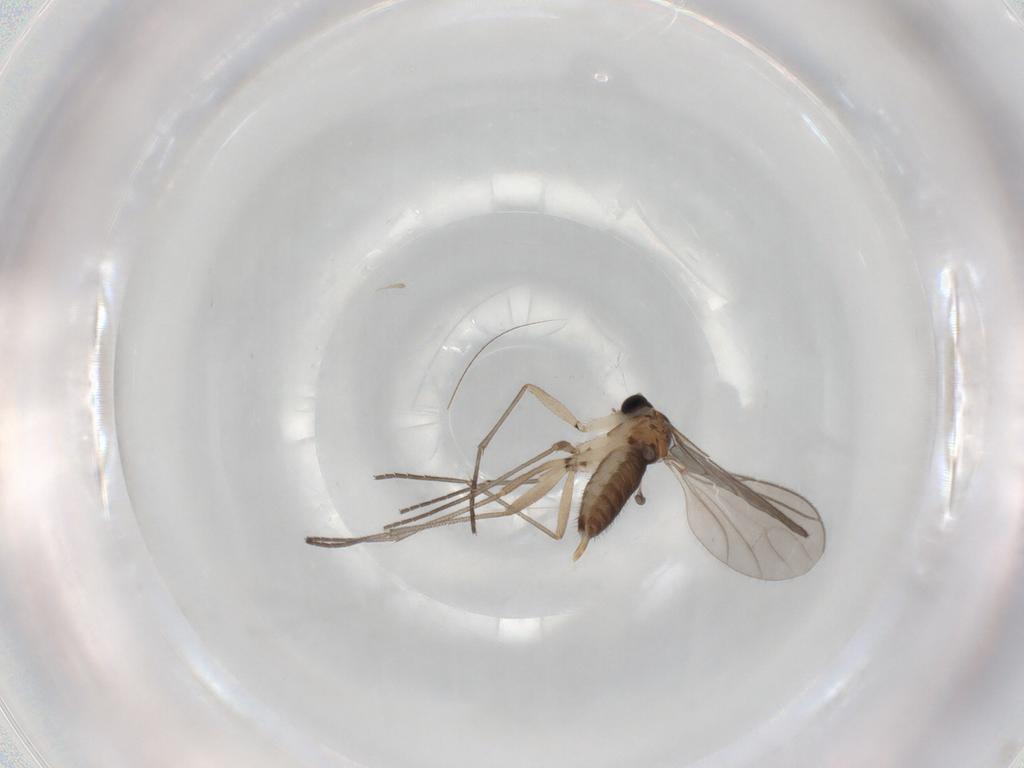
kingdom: Animalia
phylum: Arthropoda
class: Insecta
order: Diptera
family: Sciaridae
